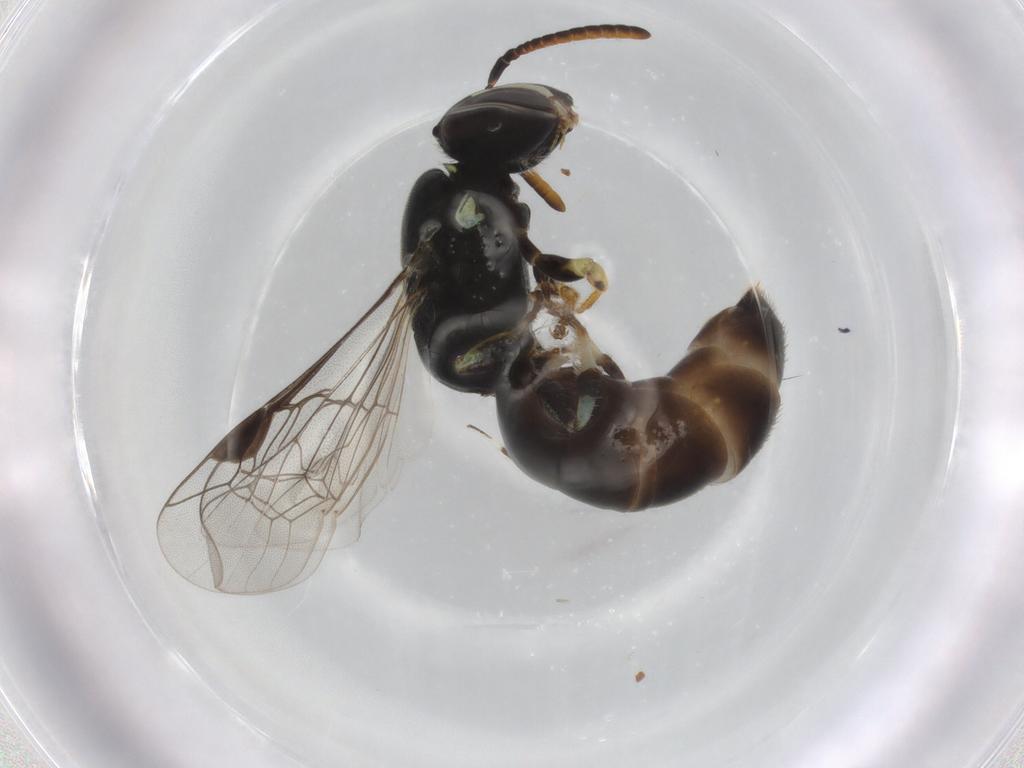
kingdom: Animalia
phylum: Arthropoda
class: Insecta
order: Hymenoptera
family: Colletidae
